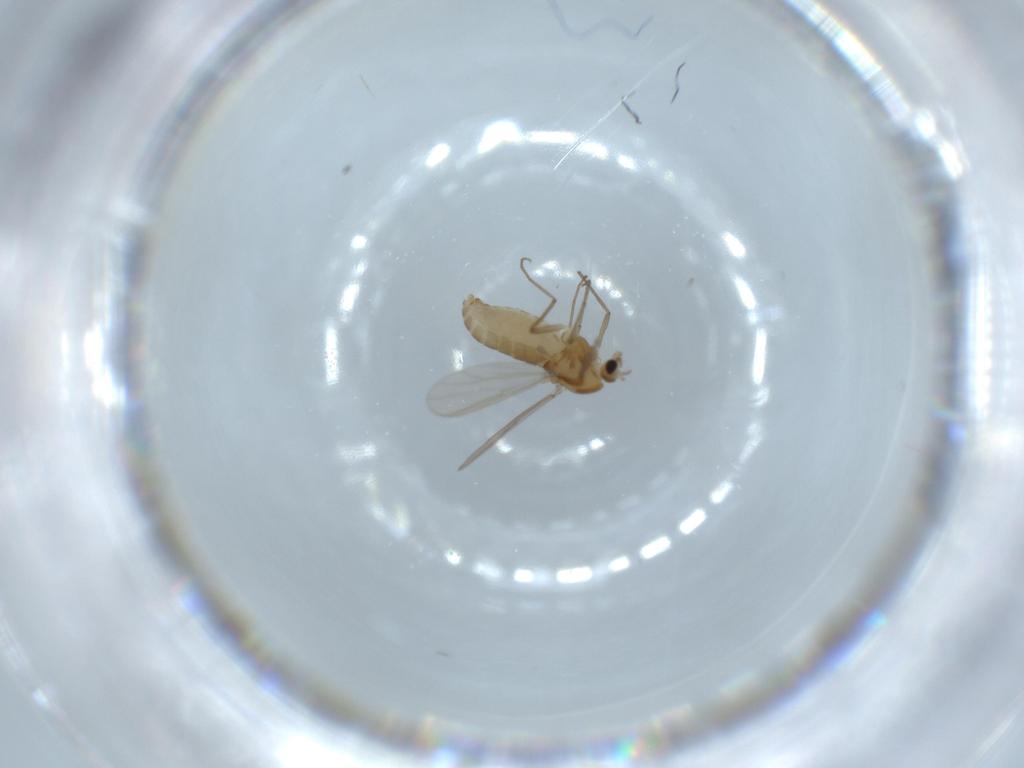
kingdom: Animalia
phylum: Arthropoda
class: Insecta
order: Diptera
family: Chironomidae
